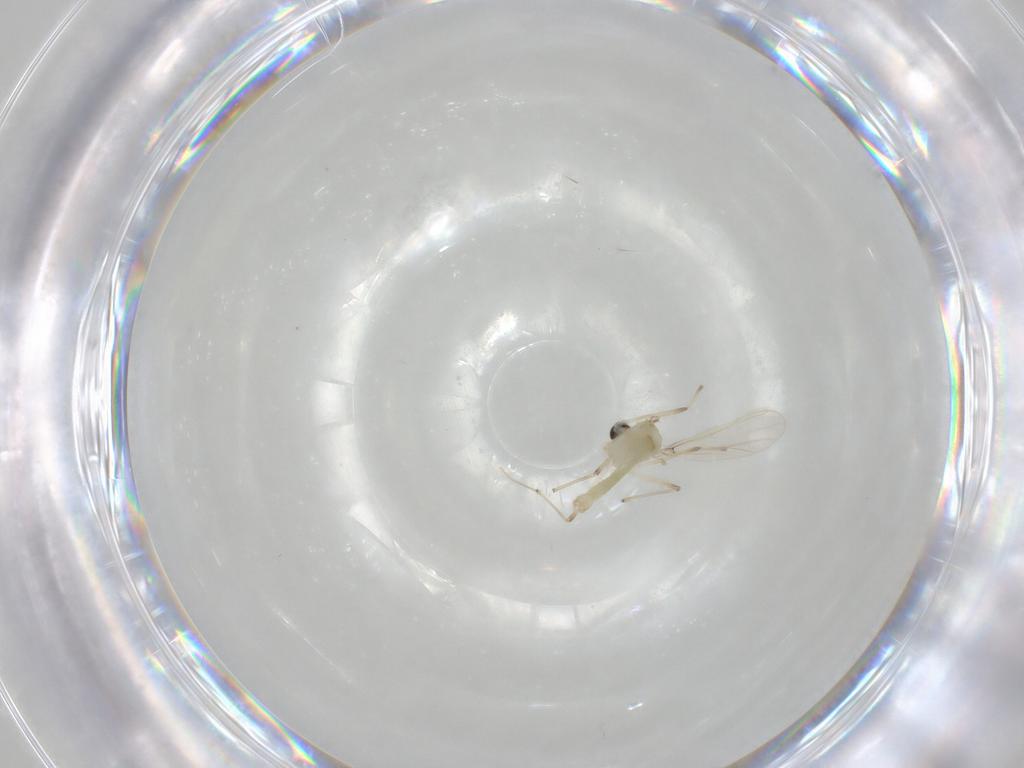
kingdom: Animalia
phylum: Arthropoda
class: Insecta
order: Diptera
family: Chironomidae
